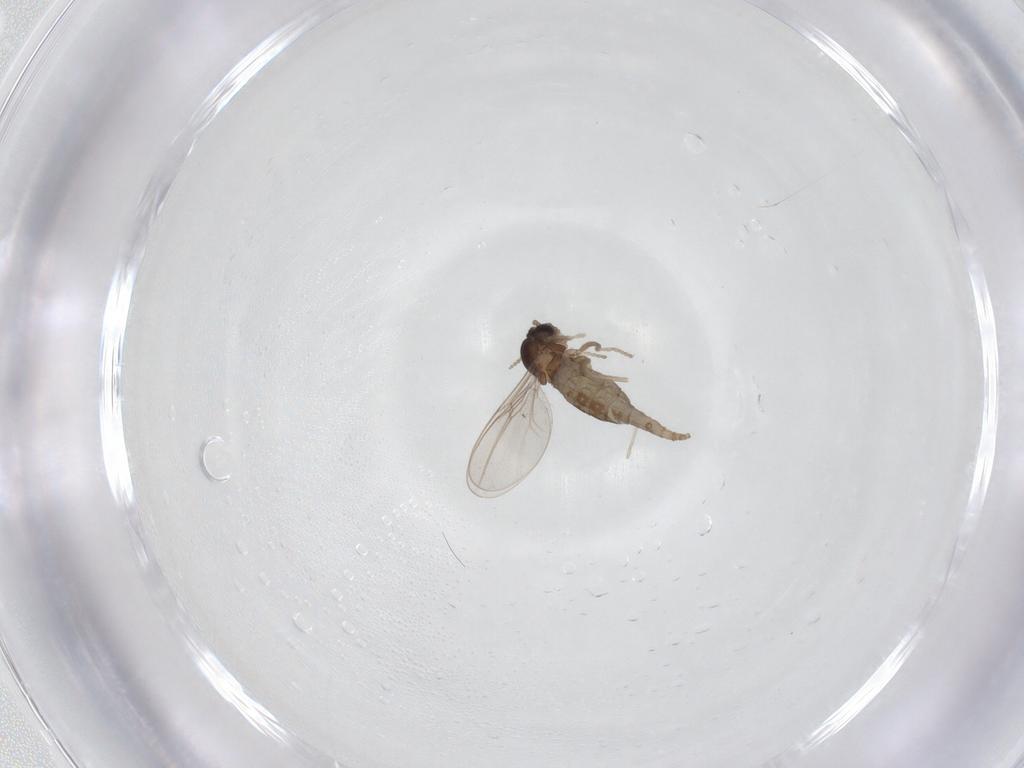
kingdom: Animalia
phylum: Arthropoda
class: Insecta
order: Diptera
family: Cecidomyiidae
